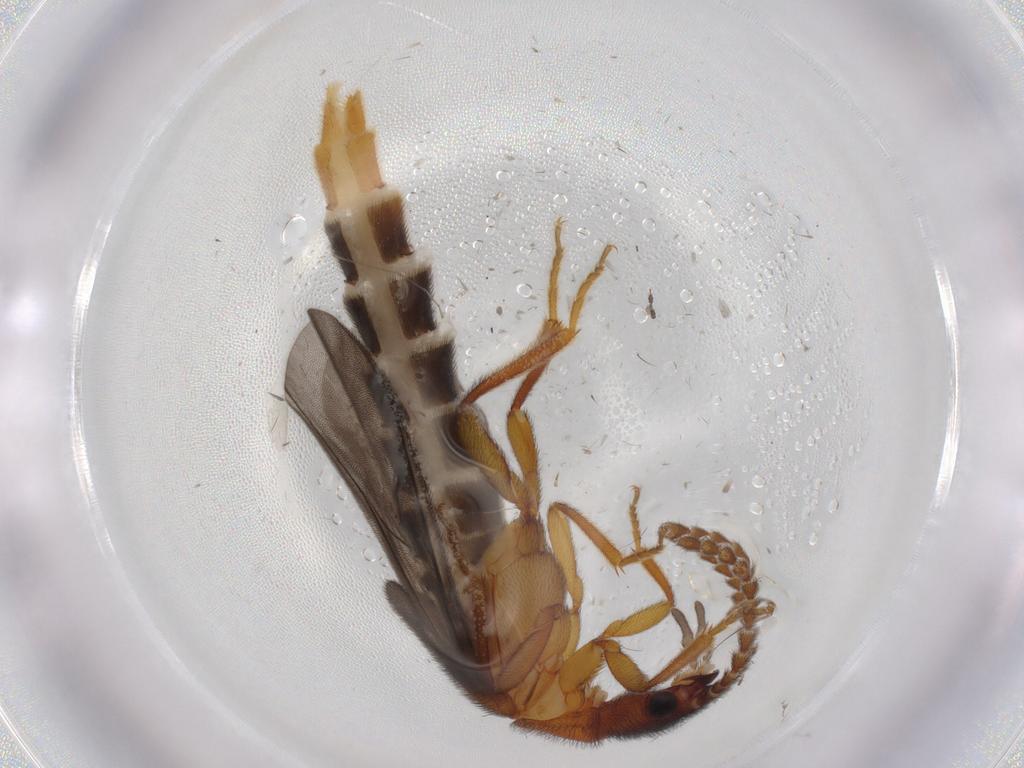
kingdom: Animalia
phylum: Arthropoda
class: Insecta
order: Coleoptera
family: Omethidae
